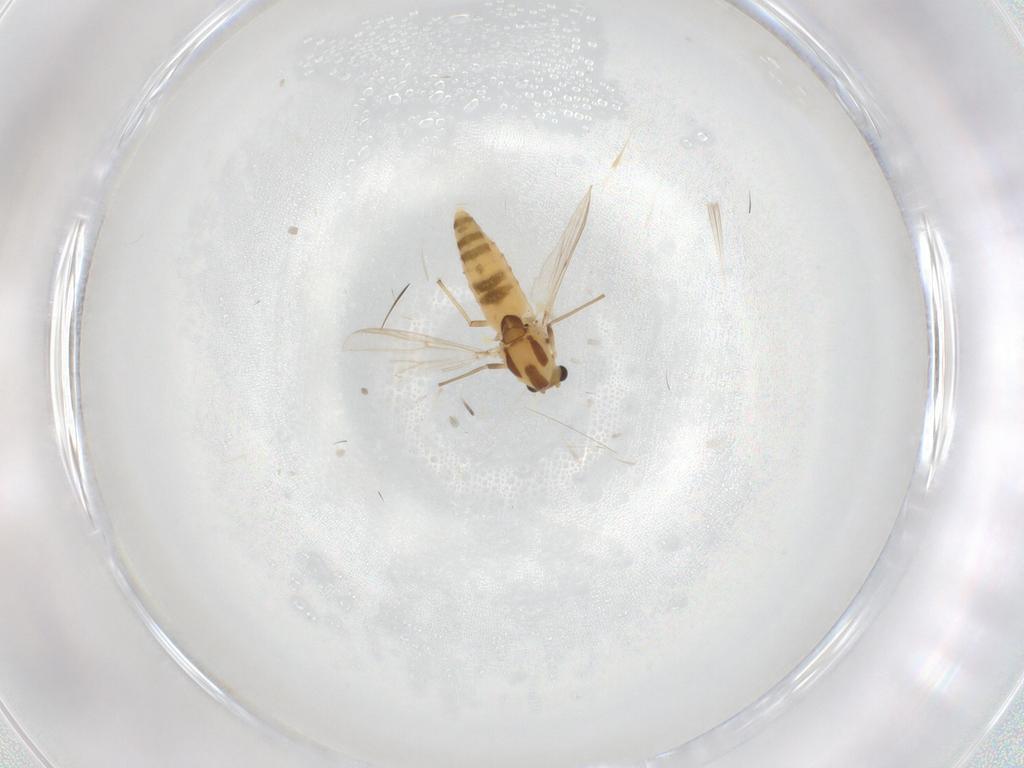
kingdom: Animalia
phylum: Arthropoda
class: Insecta
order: Diptera
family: Chironomidae
